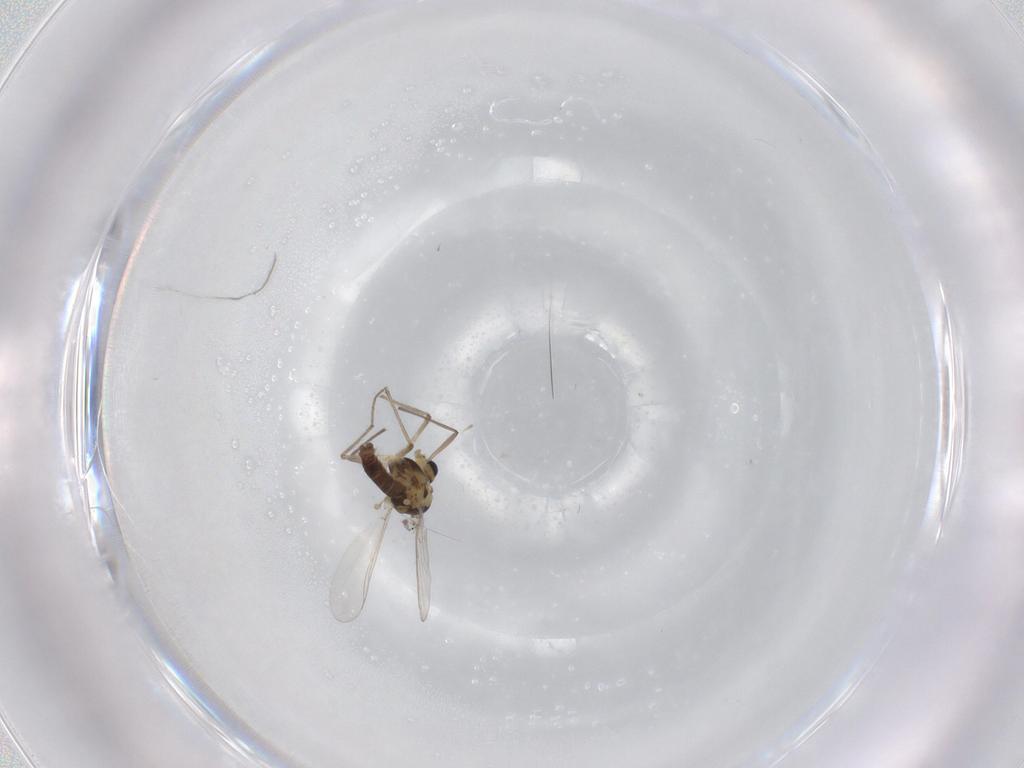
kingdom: Animalia
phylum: Arthropoda
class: Insecta
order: Diptera
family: Chironomidae
